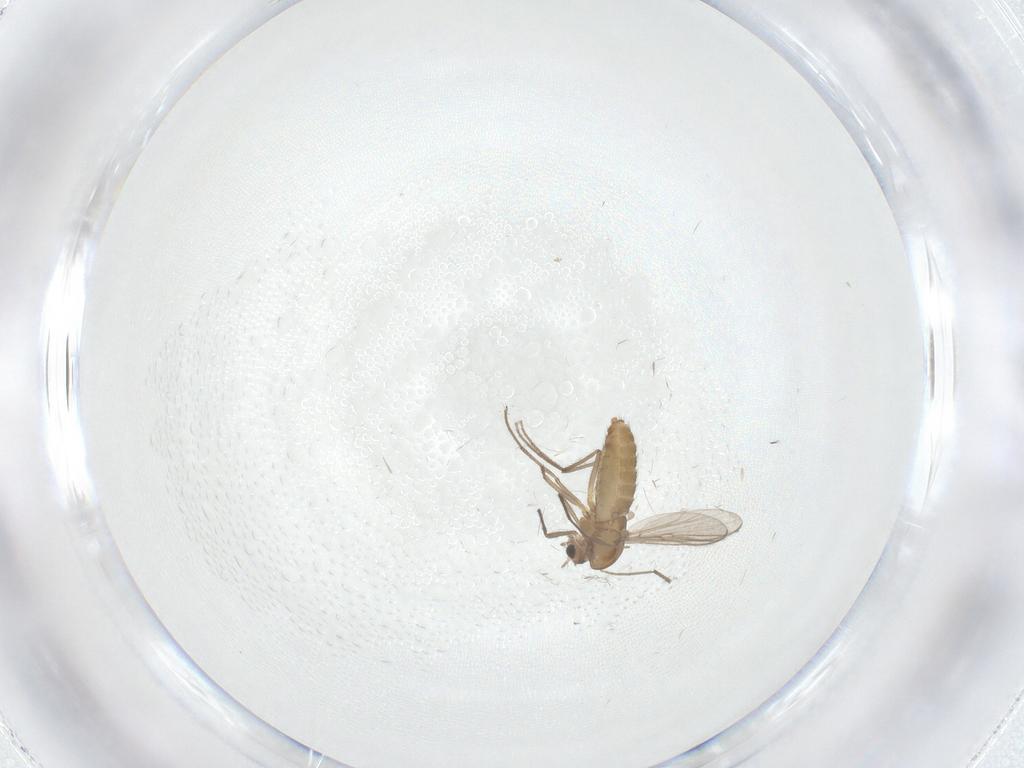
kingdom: Animalia
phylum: Arthropoda
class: Insecta
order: Diptera
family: Chironomidae
